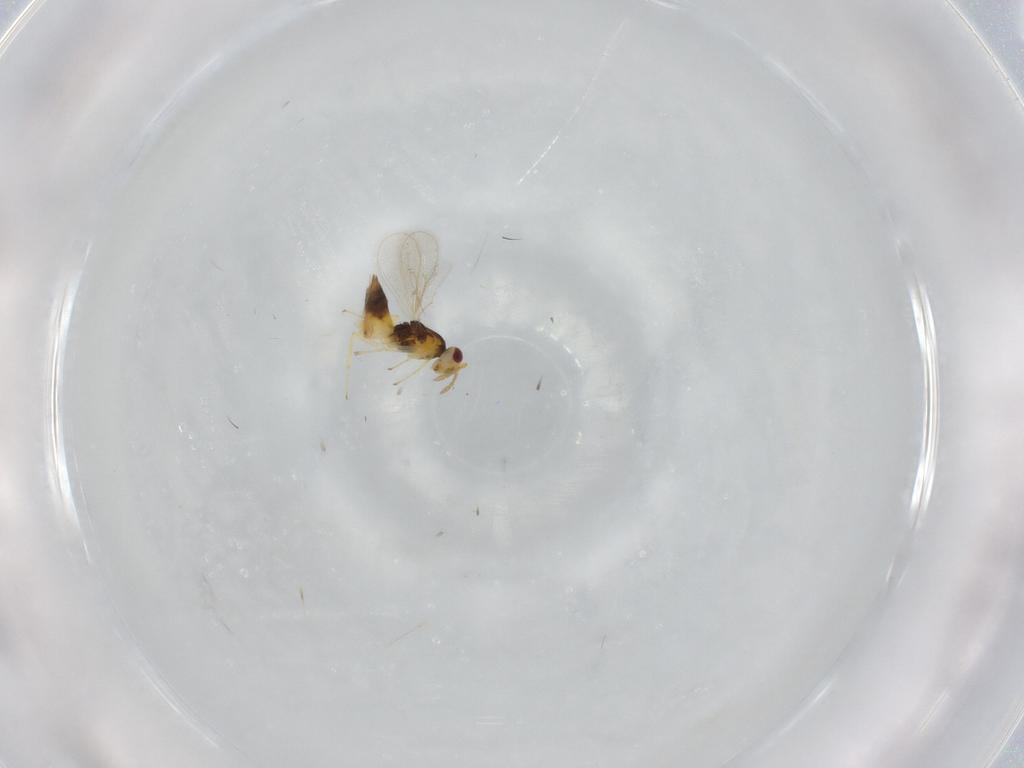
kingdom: Animalia
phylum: Arthropoda
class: Insecta
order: Hymenoptera
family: Eulophidae
